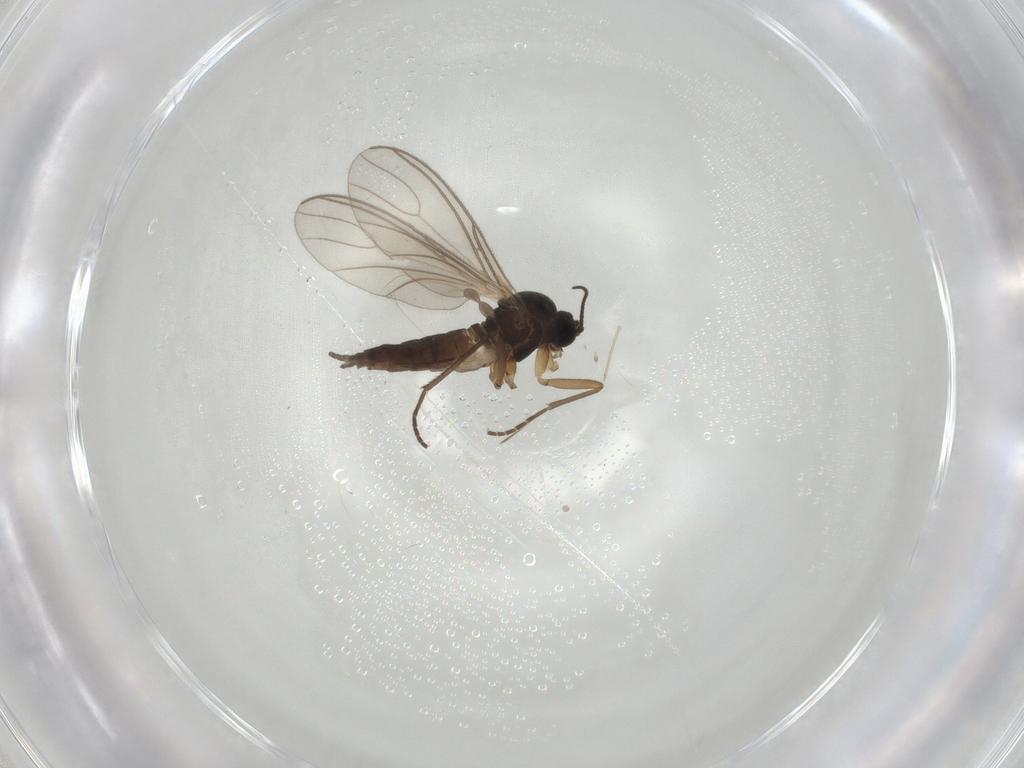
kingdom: Animalia
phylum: Arthropoda
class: Insecta
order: Diptera
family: Sciaridae
